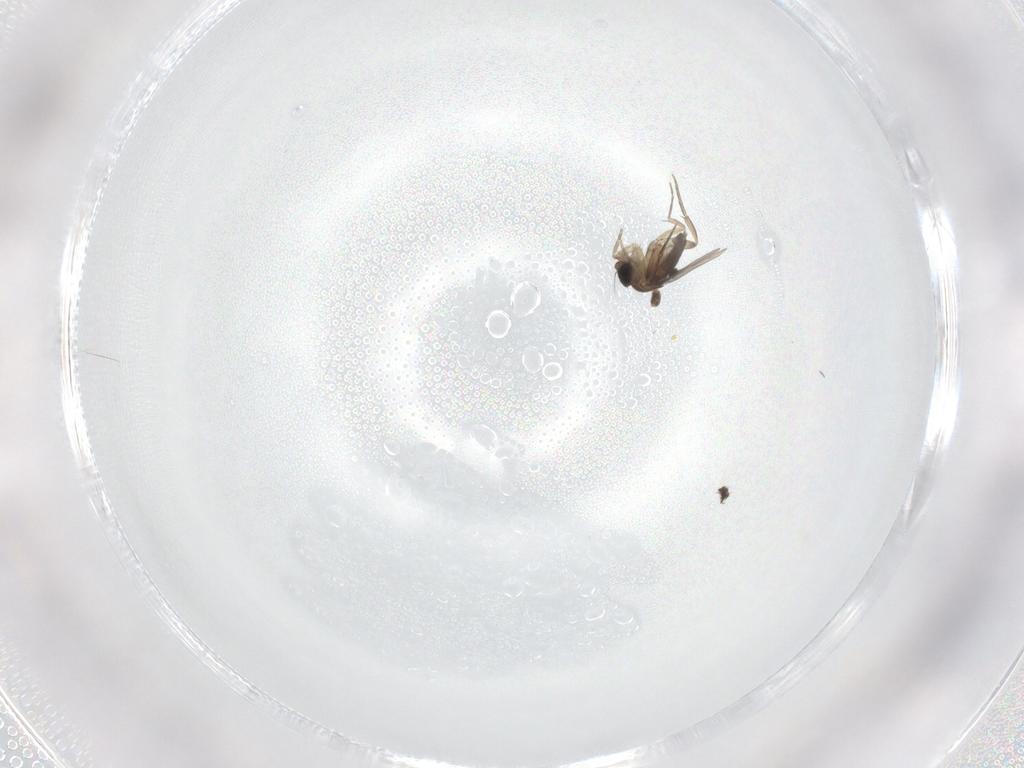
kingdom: Animalia
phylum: Arthropoda
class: Insecta
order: Diptera
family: Phoridae
